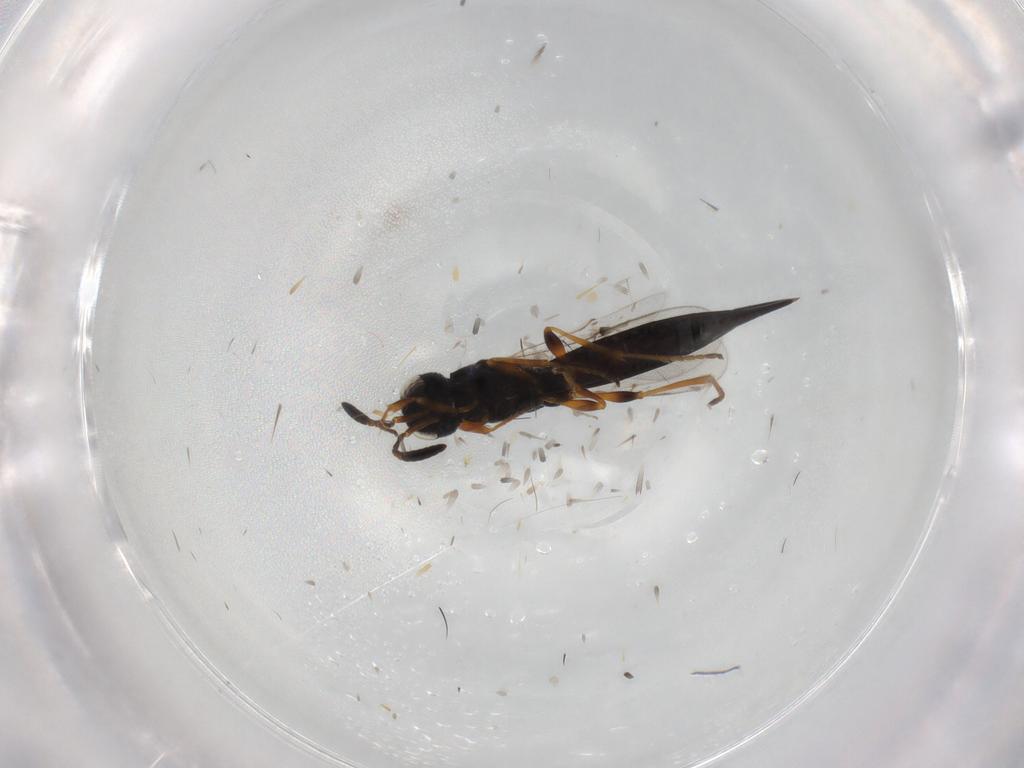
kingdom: Animalia
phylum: Arthropoda
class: Insecta
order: Hymenoptera
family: Scelionidae
